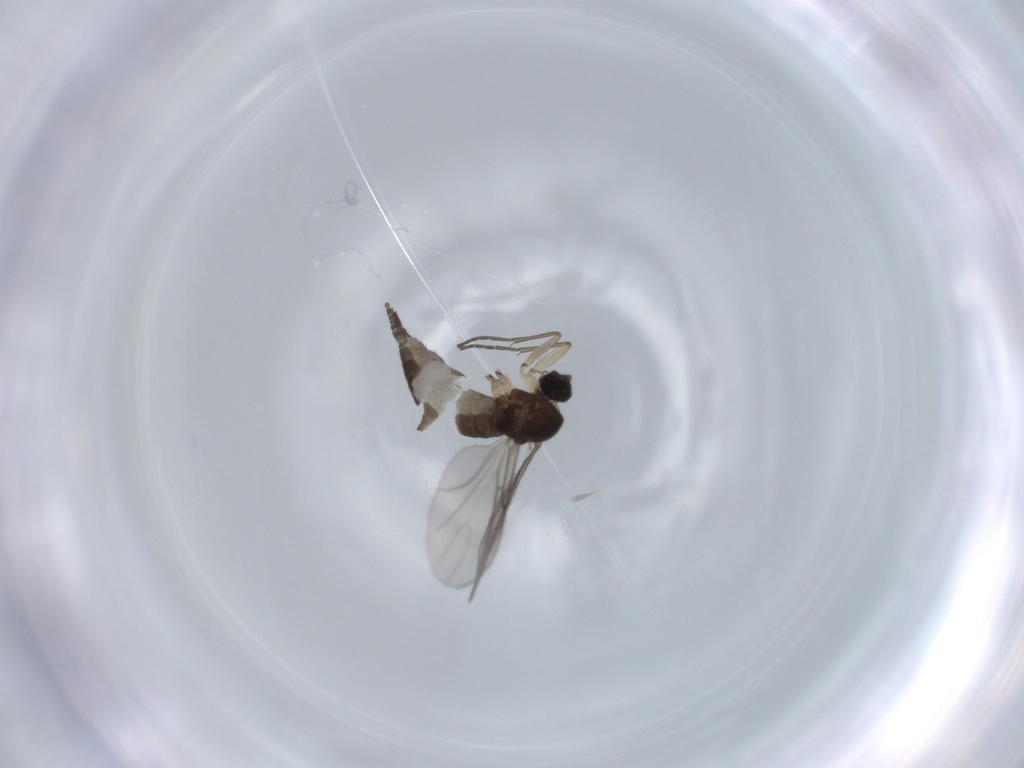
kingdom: Animalia
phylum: Arthropoda
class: Insecta
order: Diptera
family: Sciaridae
